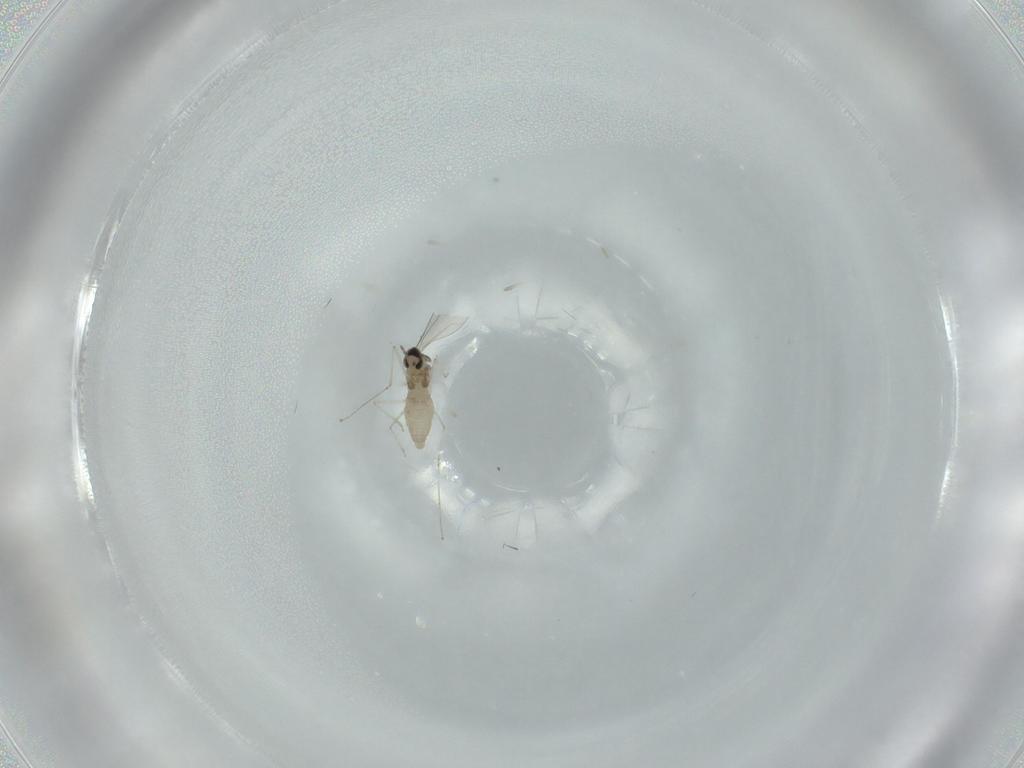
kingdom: Animalia
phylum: Arthropoda
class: Insecta
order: Diptera
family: Cecidomyiidae
